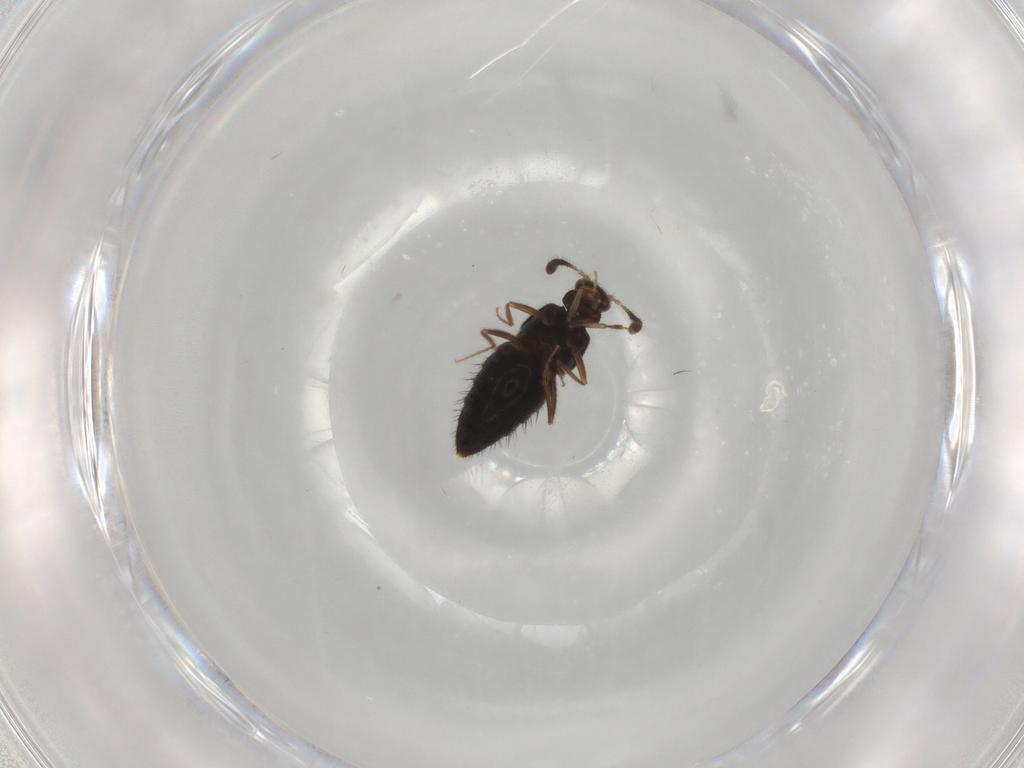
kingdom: Animalia
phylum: Arthropoda
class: Insecta
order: Coleoptera
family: Staphylinidae
